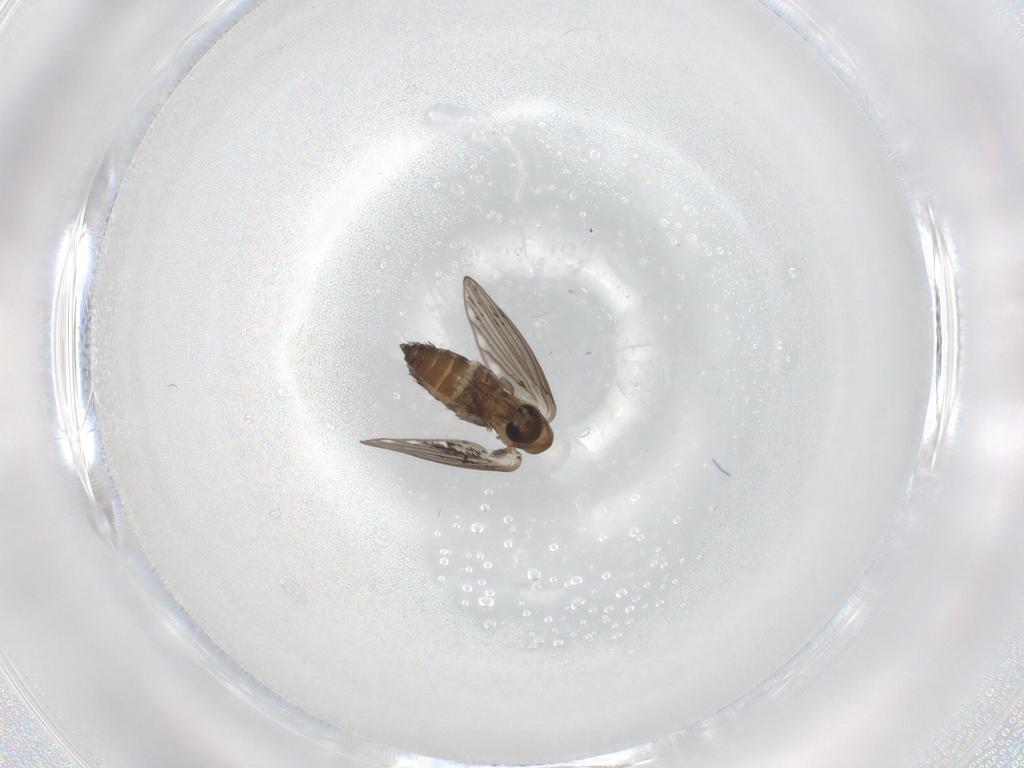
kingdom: Animalia
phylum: Arthropoda
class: Insecta
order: Diptera
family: Psychodidae
